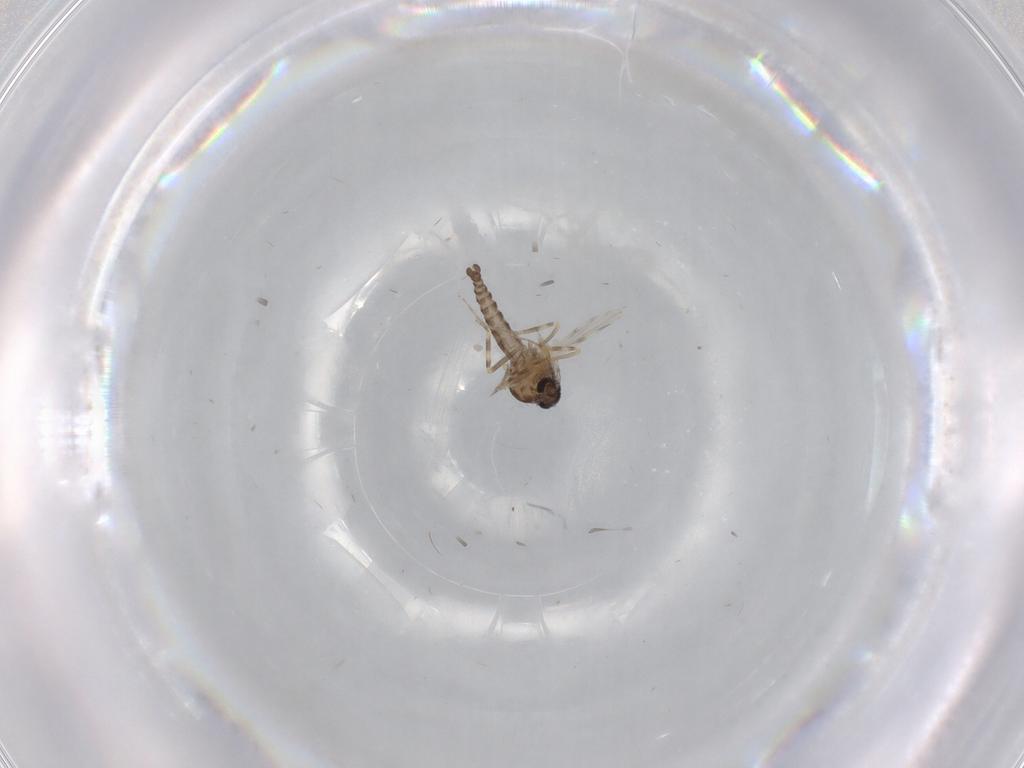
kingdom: Animalia
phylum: Arthropoda
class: Insecta
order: Diptera
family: Ceratopogonidae
